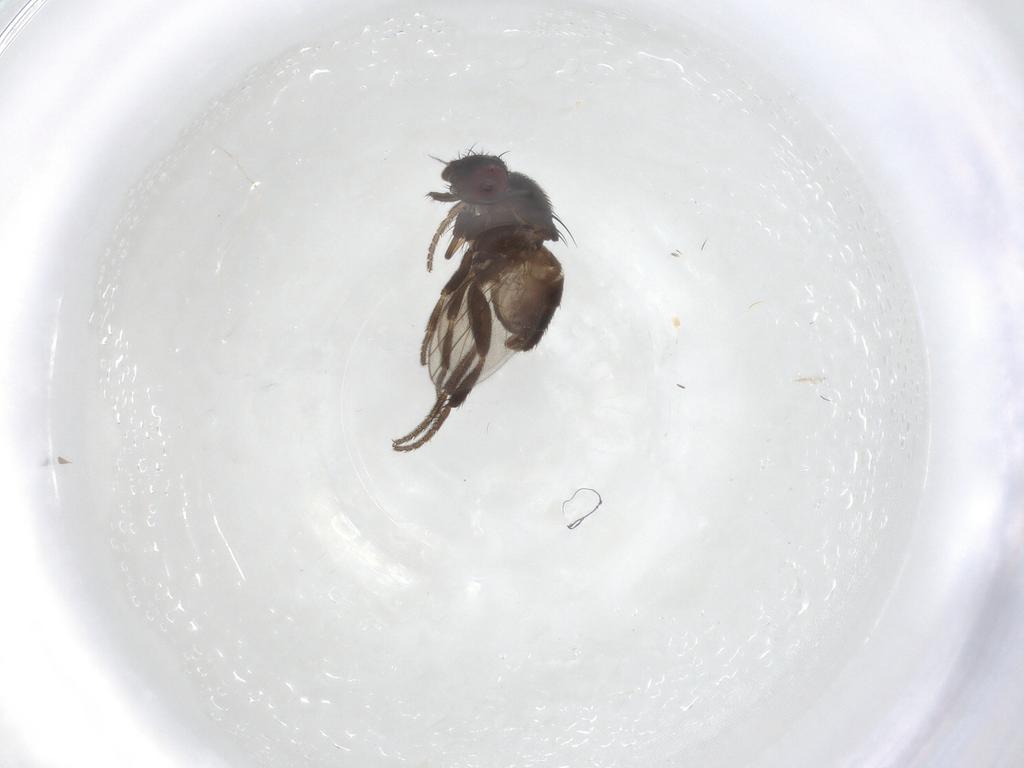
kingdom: Animalia
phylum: Arthropoda
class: Insecta
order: Diptera
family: Milichiidae
